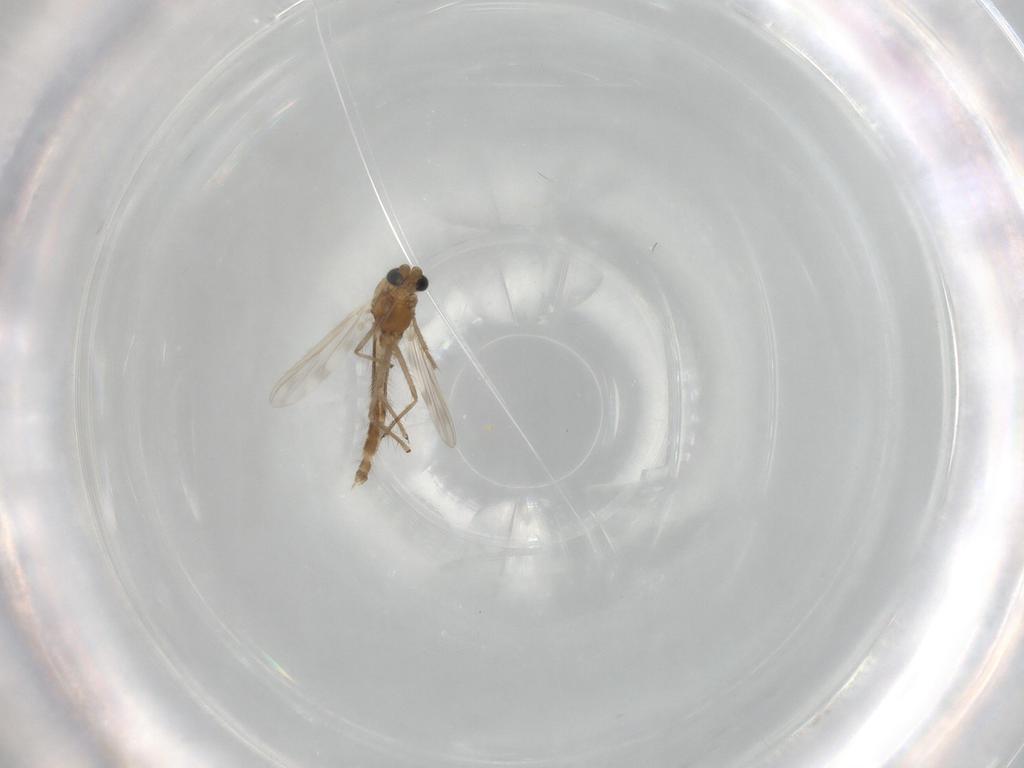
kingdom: Animalia
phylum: Arthropoda
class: Insecta
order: Diptera
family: Chironomidae
